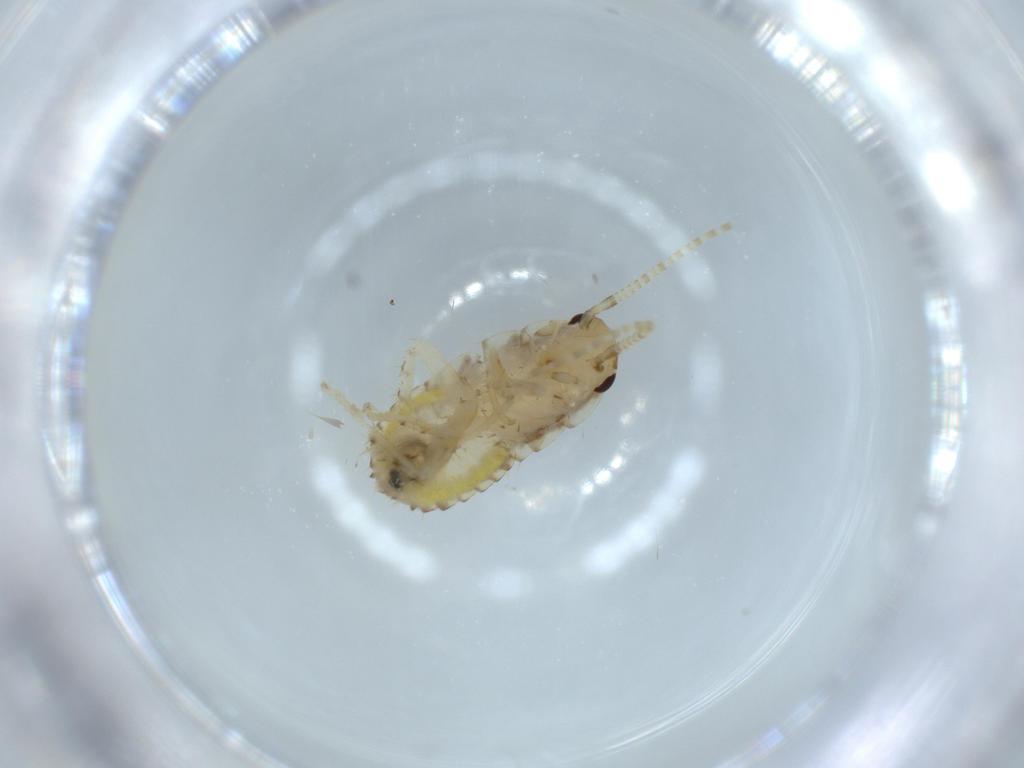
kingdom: Animalia
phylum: Arthropoda
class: Insecta
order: Blattodea
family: Ectobiidae
